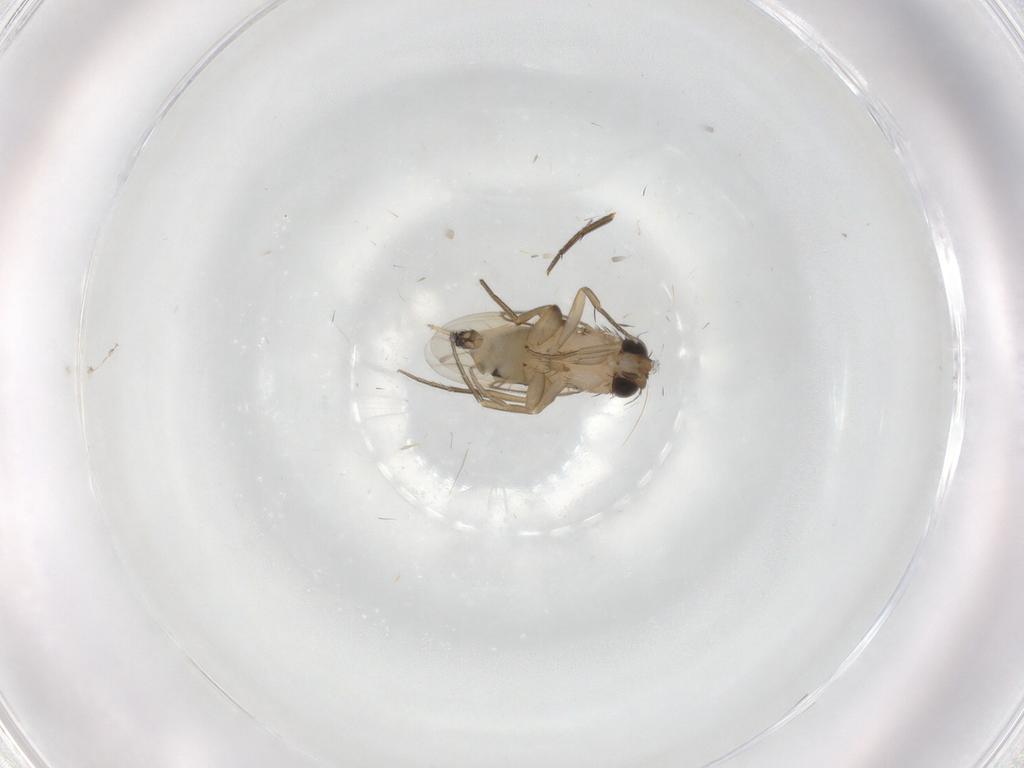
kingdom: Animalia
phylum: Arthropoda
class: Insecta
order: Diptera
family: Phoridae
